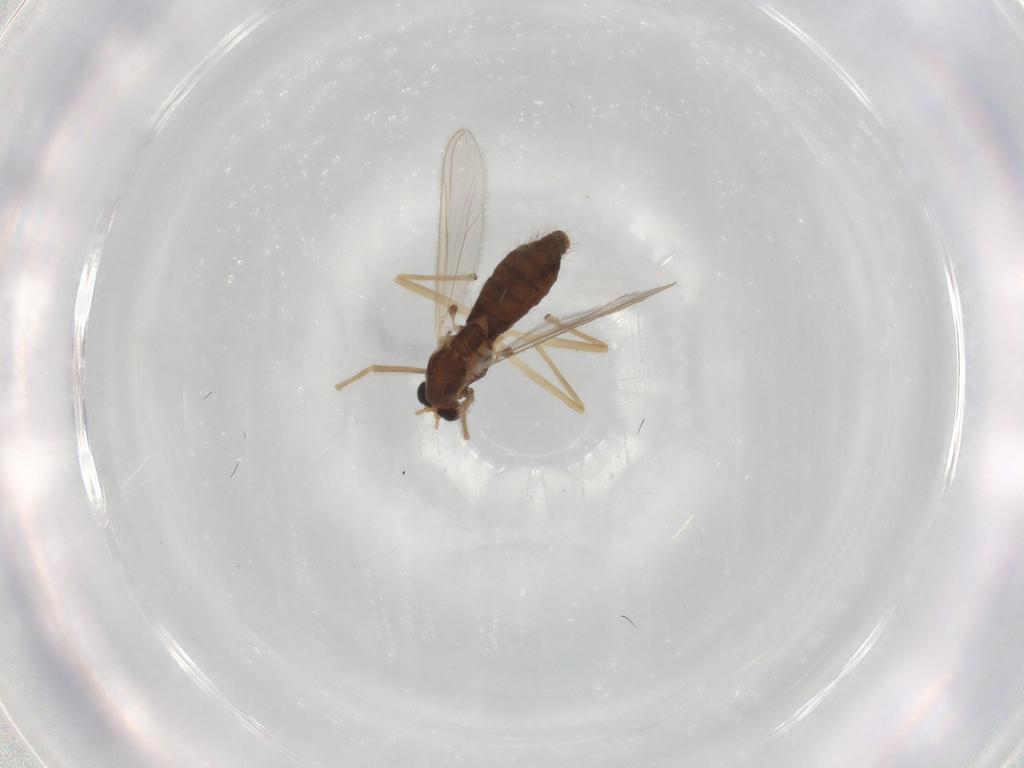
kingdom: Animalia
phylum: Arthropoda
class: Insecta
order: Diptera
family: Chironomidae
